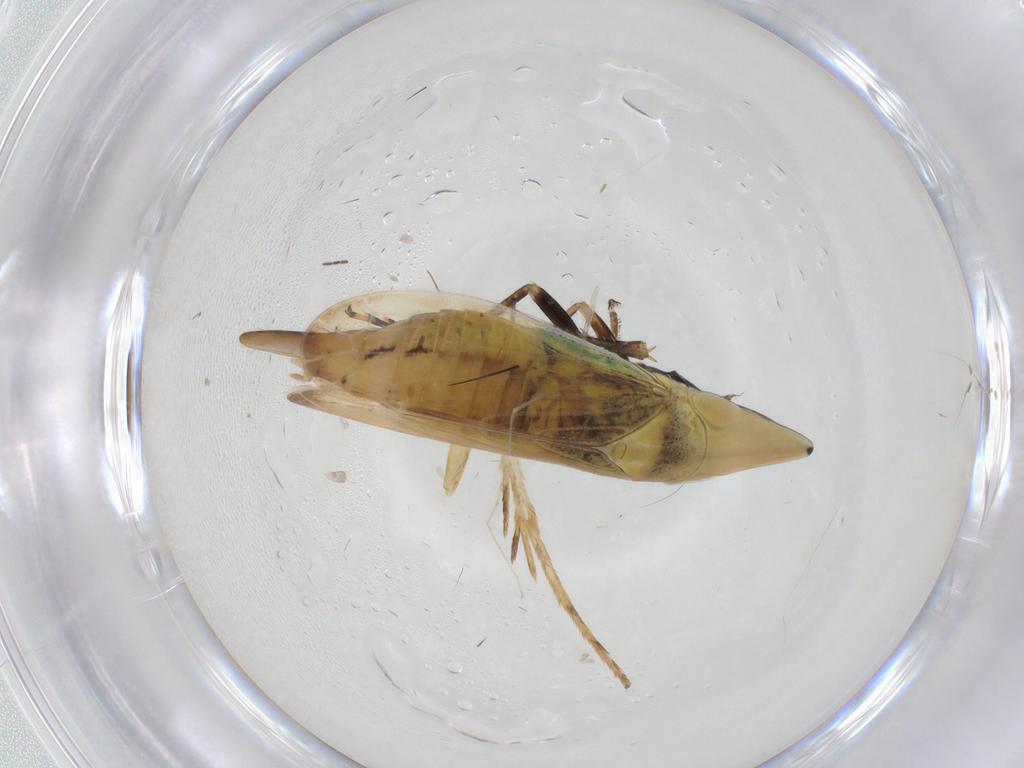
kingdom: Animalia
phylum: Arthropoda
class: Insecta
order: Hemiptera
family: Cicadellidae
